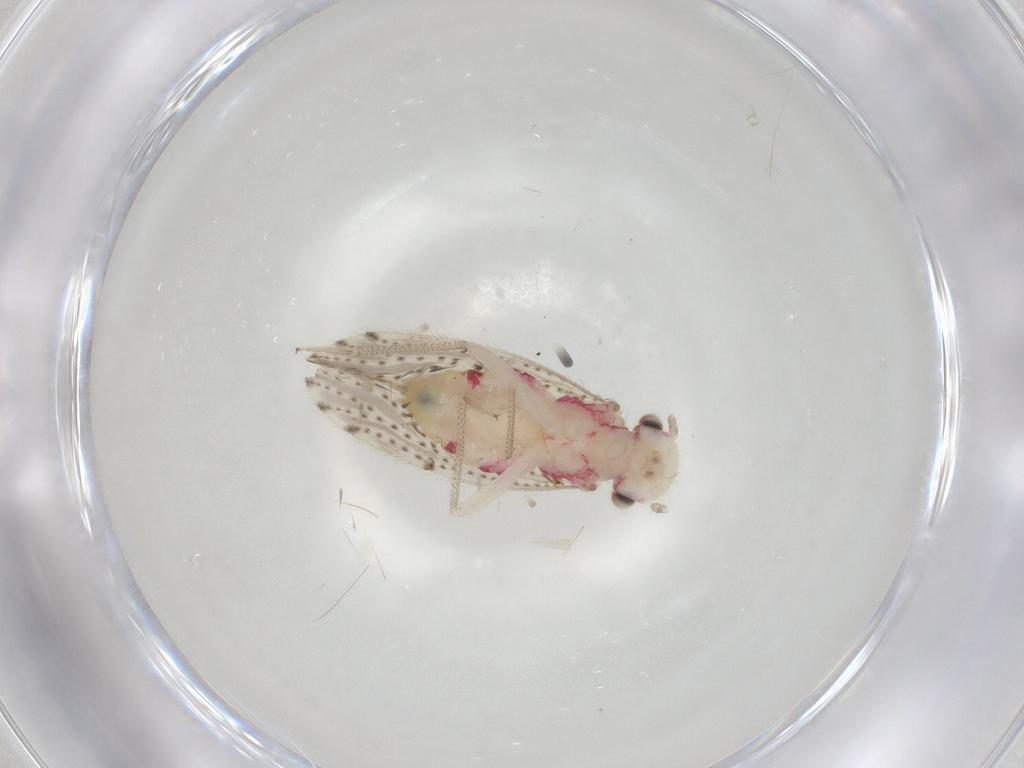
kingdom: Animalia
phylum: Arthropoda
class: Insecta
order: Psocodea
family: Hemipsocidae
